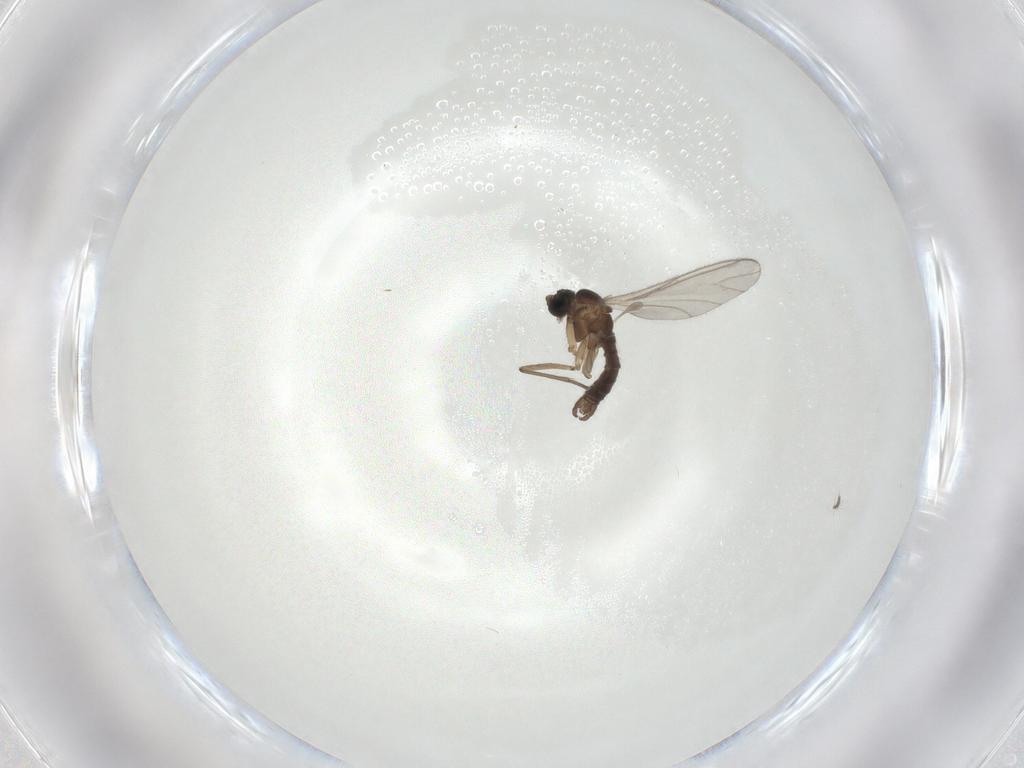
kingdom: Animalia
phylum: Arthropoda
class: Insecta
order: Diptera
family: Sciaridae
